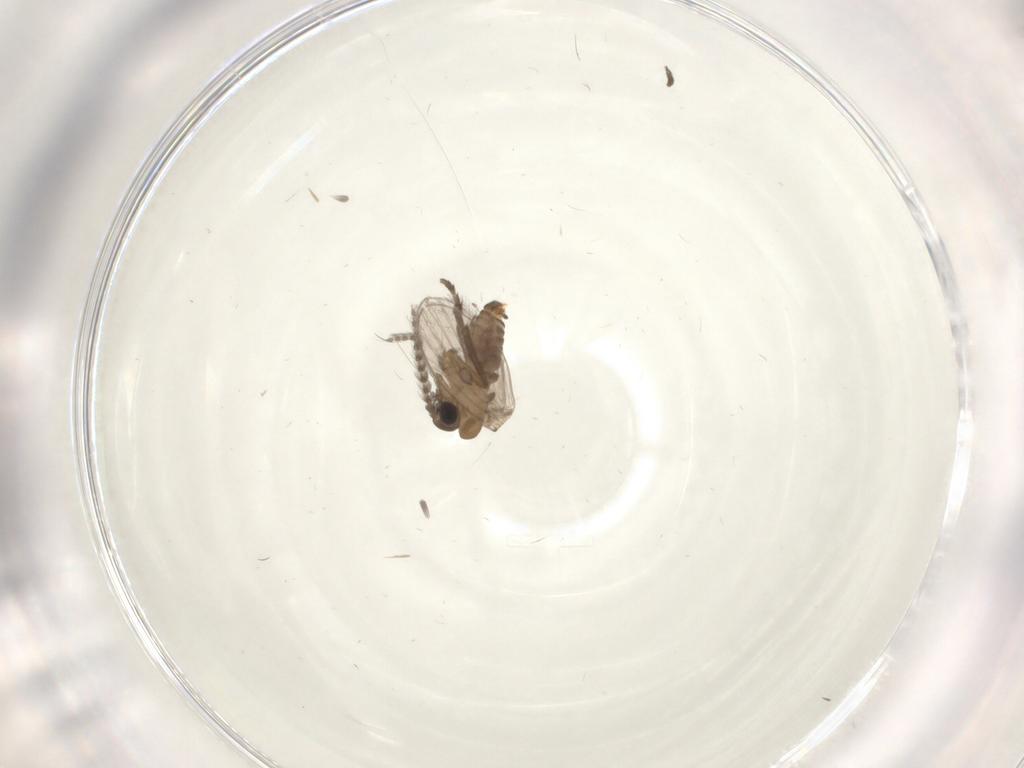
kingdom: Animalia
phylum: Arthropoda
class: Insecta
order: Diptera
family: Psychodidae
